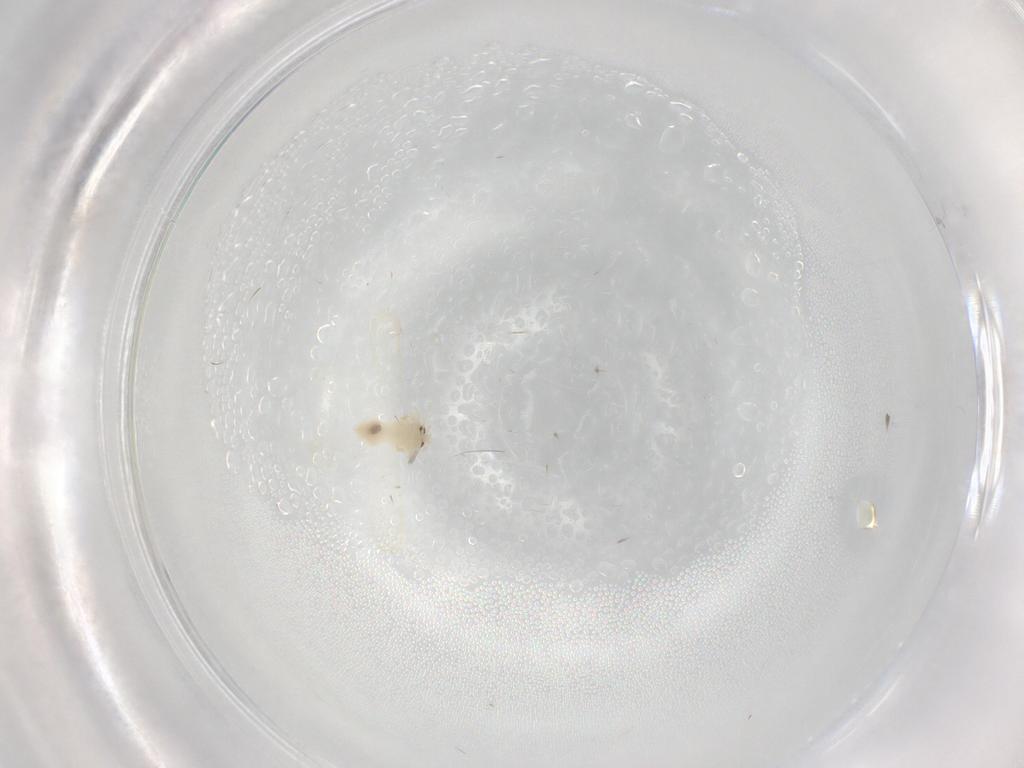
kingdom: Animalia
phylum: Arthropoda
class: Insecta
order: Hemiptera
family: Cicadellidae
